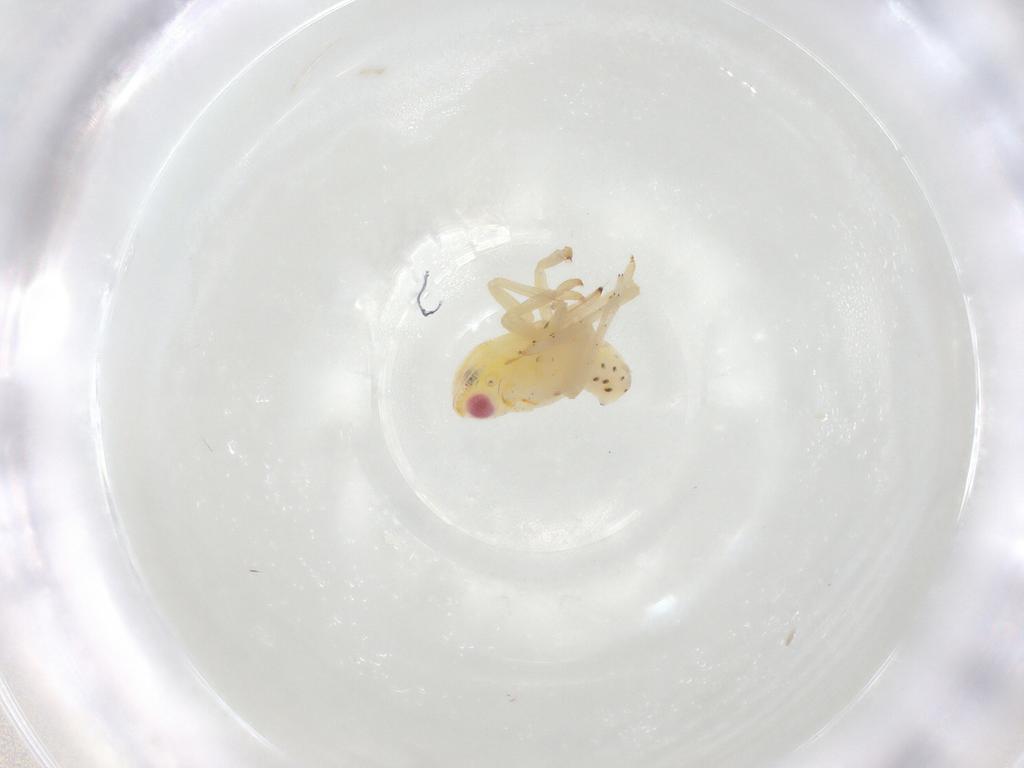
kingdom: Animalia
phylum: Arthropoda
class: Insecta
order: Hemiptera
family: Tropiduchidae
